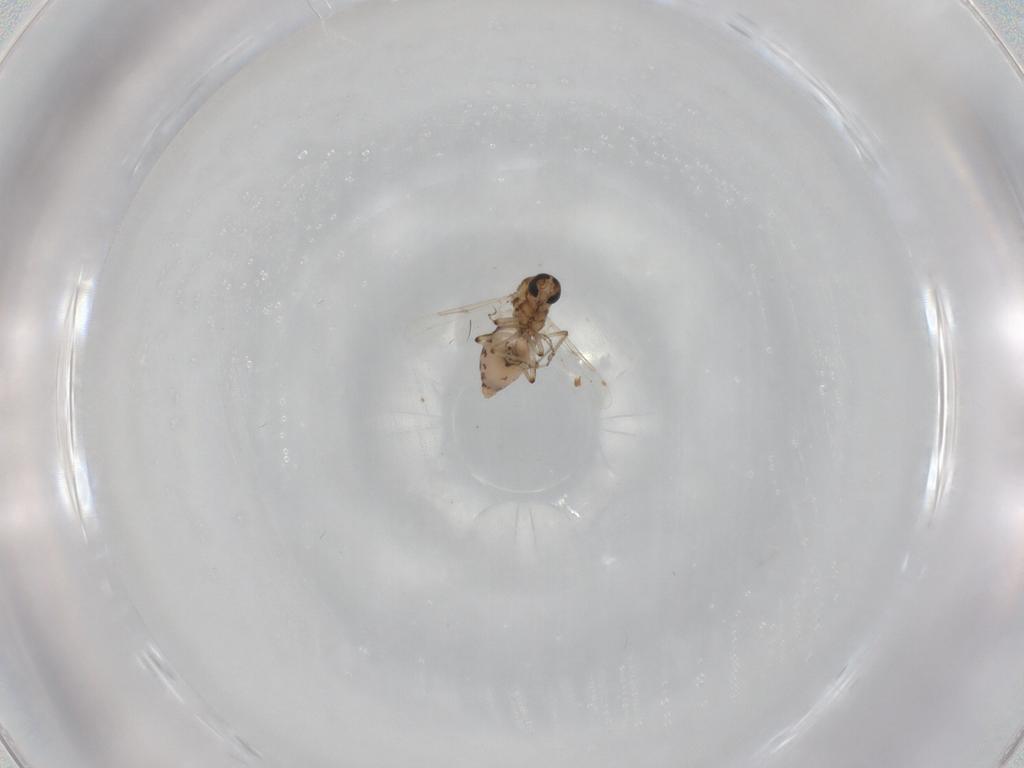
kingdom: Animalia
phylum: Arthropoda
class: Insecta
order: Diptera
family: Ceratopogonidae
